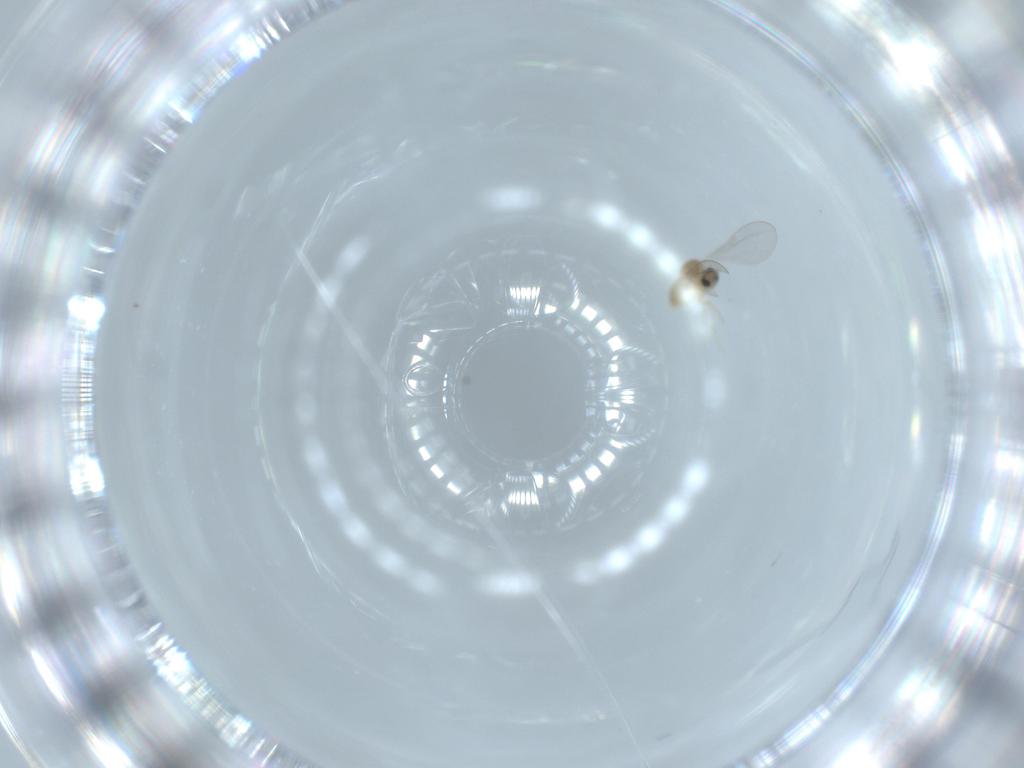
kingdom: Animalia
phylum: Arthropoda
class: Insecta
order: Diptera
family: Cecidomyiidae
